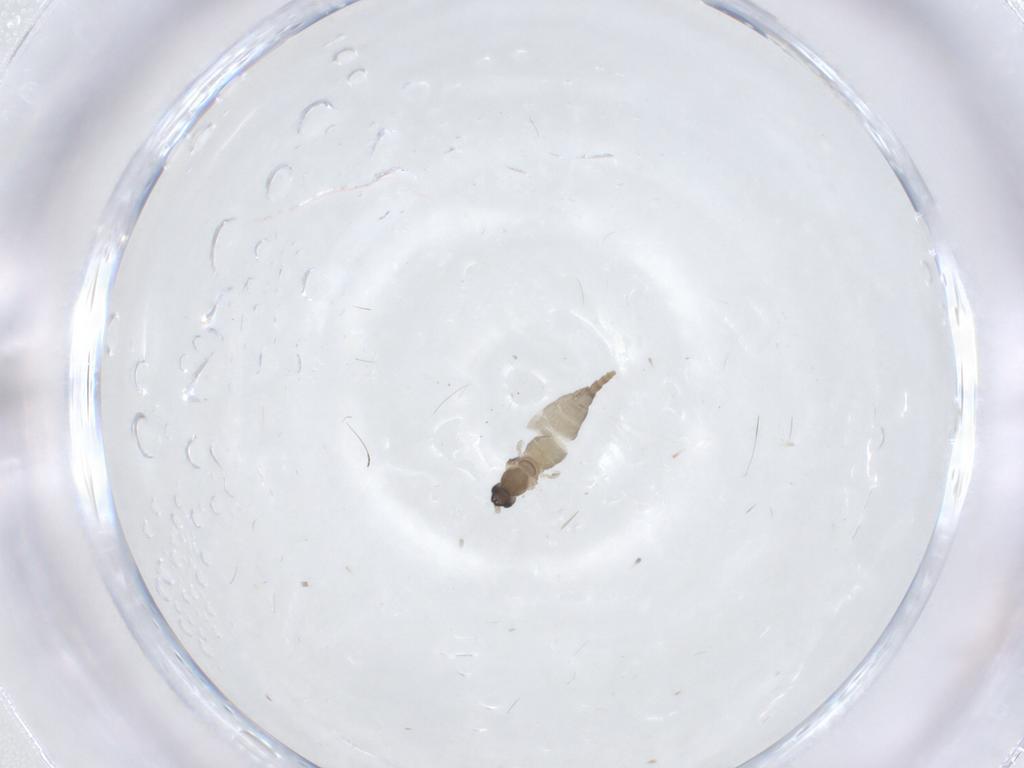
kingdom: Animalia
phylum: Arthropoda
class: Insecta
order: Diptera
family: Cecidomyiidae
